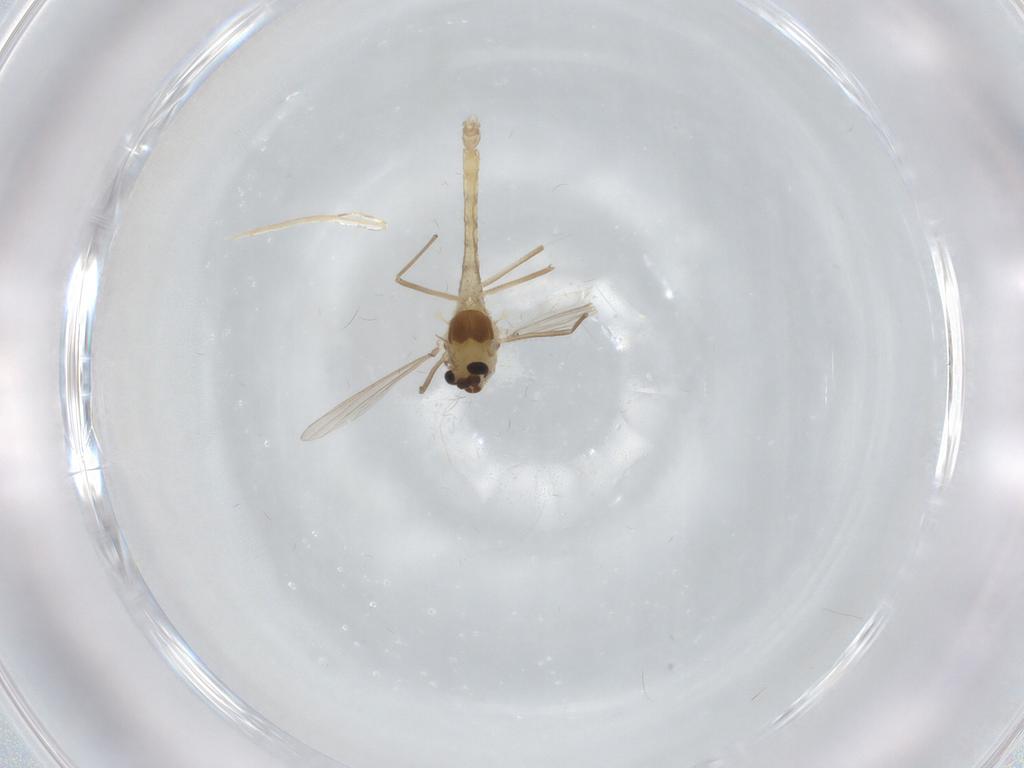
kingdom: Animalia
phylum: Arthropoda
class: Insecta
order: Diptera
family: Chironomidae
